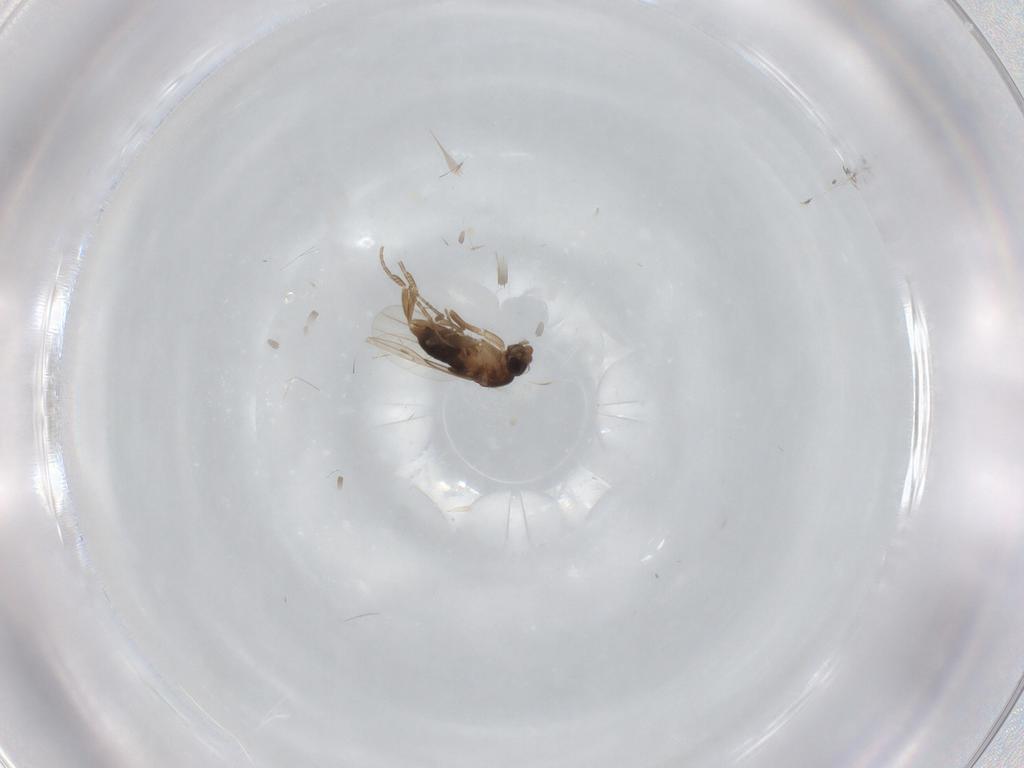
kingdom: Animalia
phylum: Arthropoda
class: Insecta
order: Diptera
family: Phoridae
